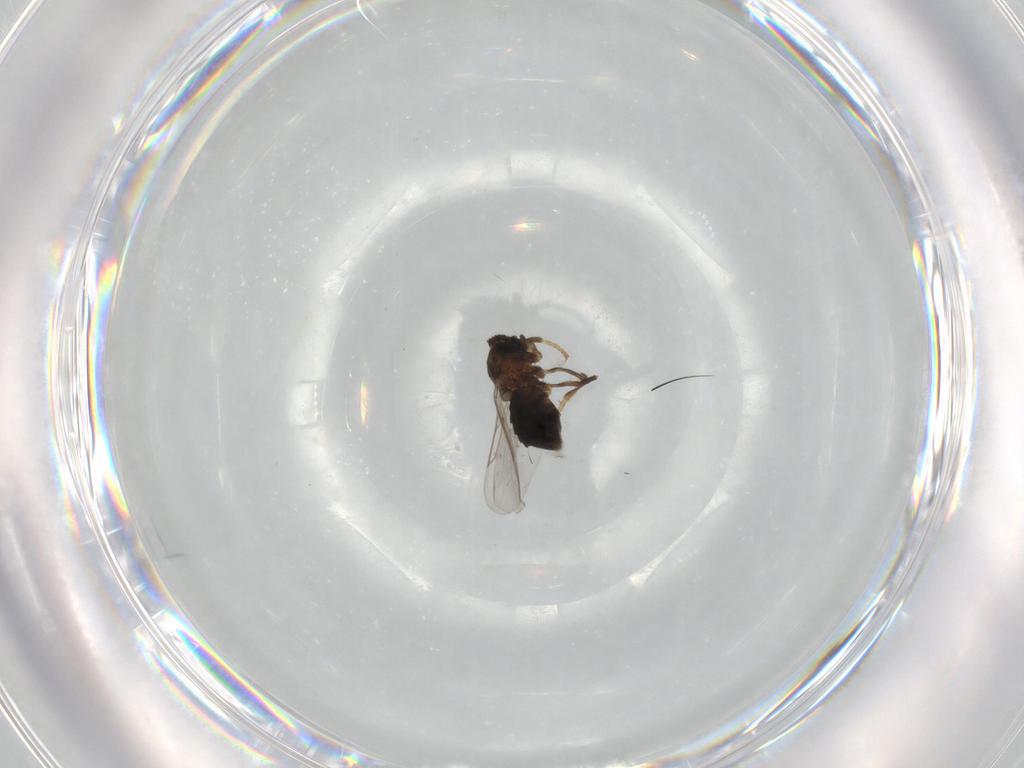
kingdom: Animalia
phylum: Arthropoda
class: Insecta
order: Diptera
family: Scatopsidae
